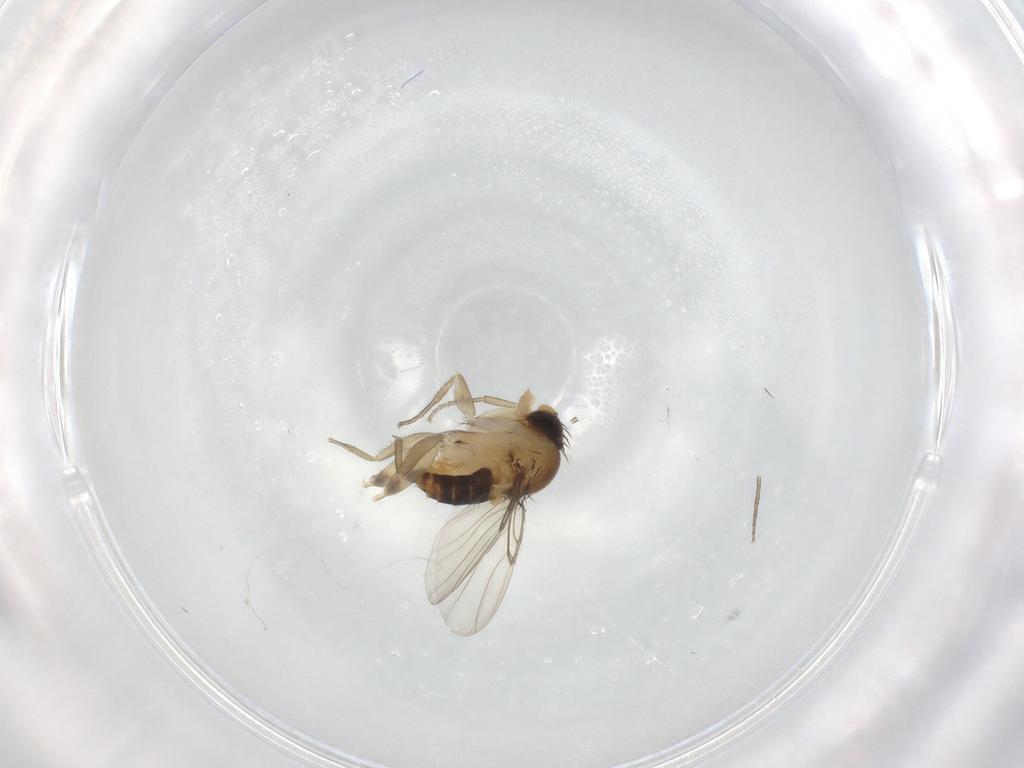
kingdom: Animalia
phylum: Arthropoda
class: Insecta
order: Diptera
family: Phoridae
